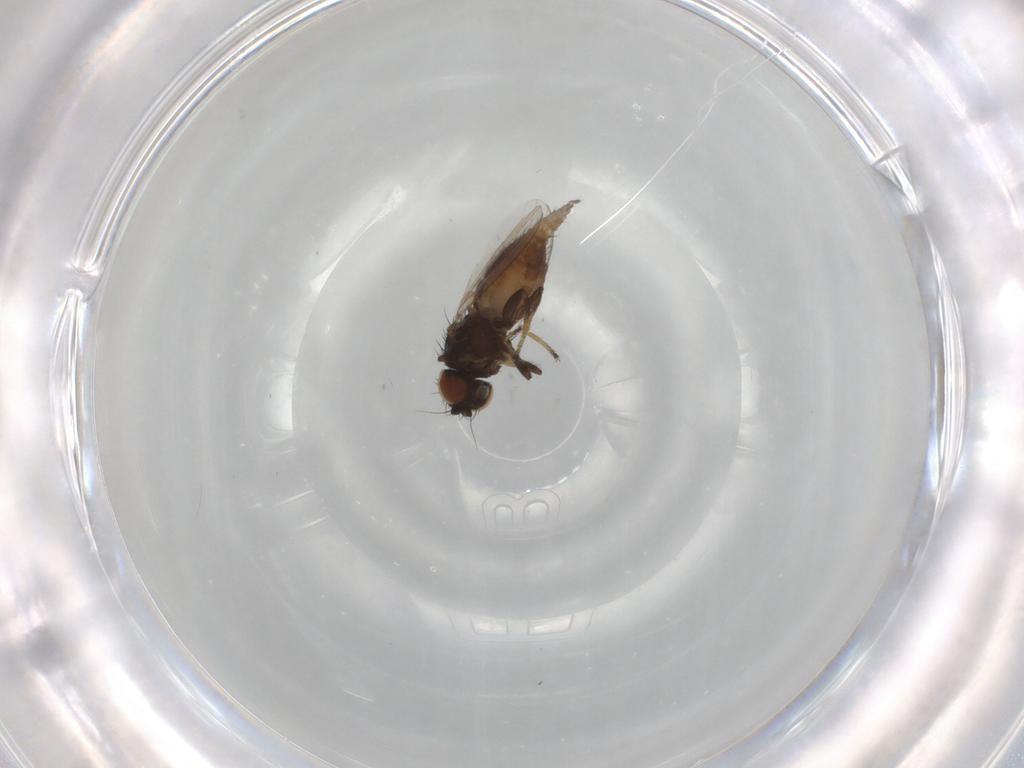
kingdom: Animalia
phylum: Arthropoda
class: Insecta
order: Diptera
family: Milichiidae
